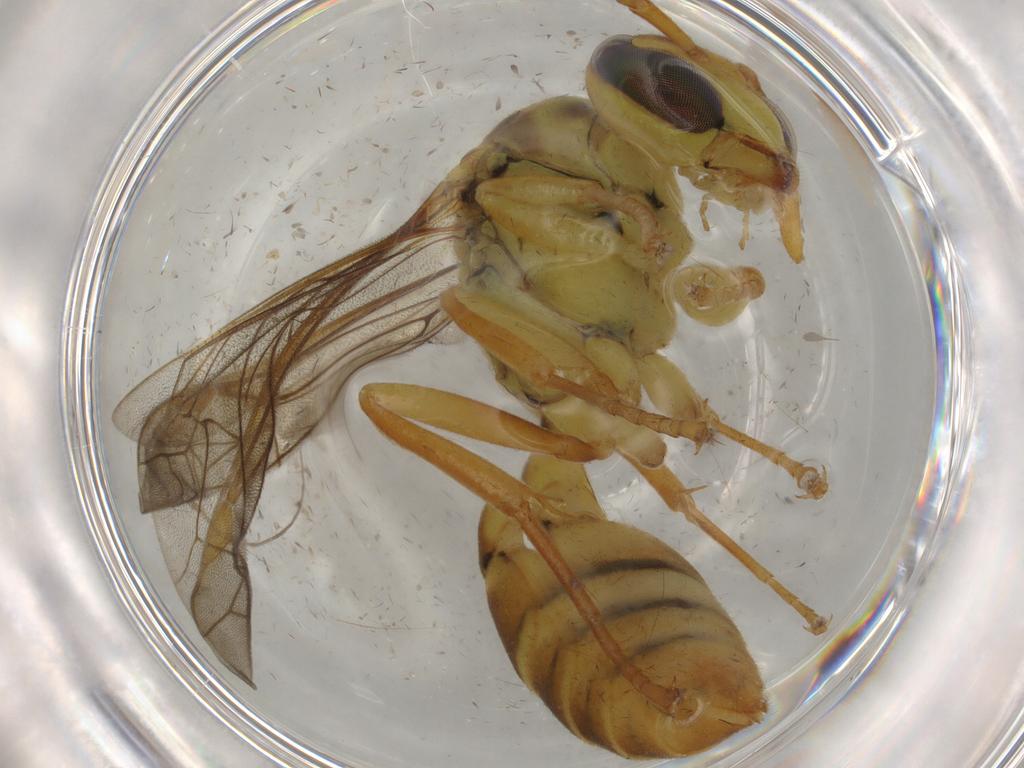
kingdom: Animalia
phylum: Arthropoda
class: Insecta
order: Hymenoptera
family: Vespidae
